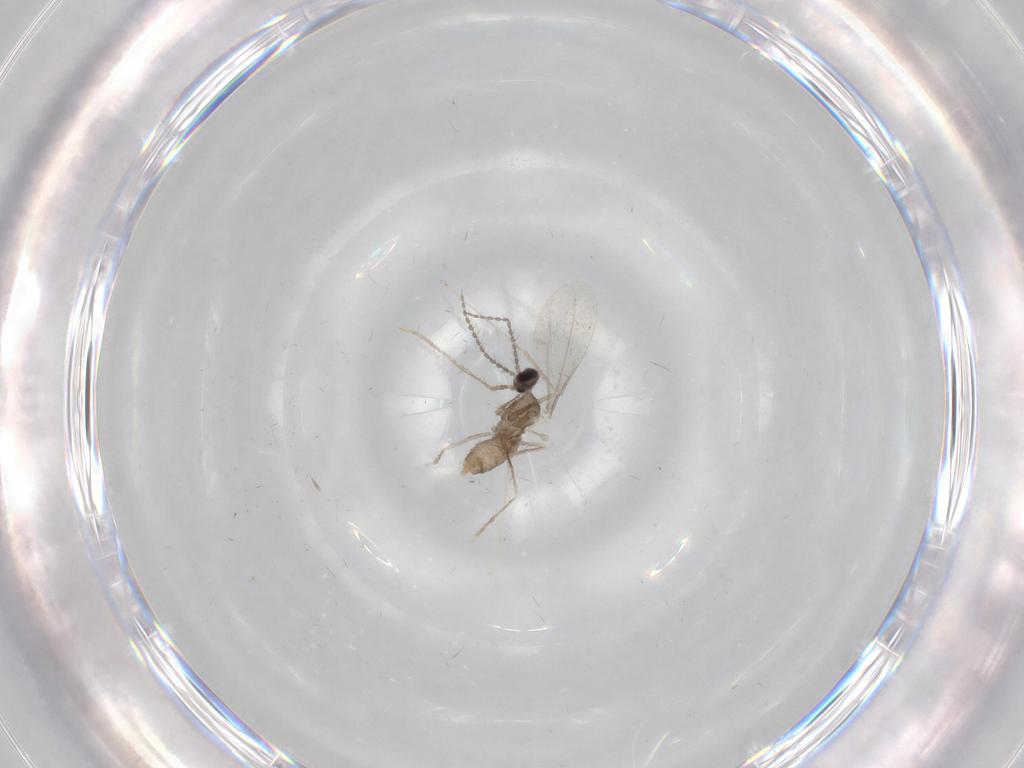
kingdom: Animalia
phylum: Arthropoda
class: Insecta
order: Diptera
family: Cecidomyiidae
